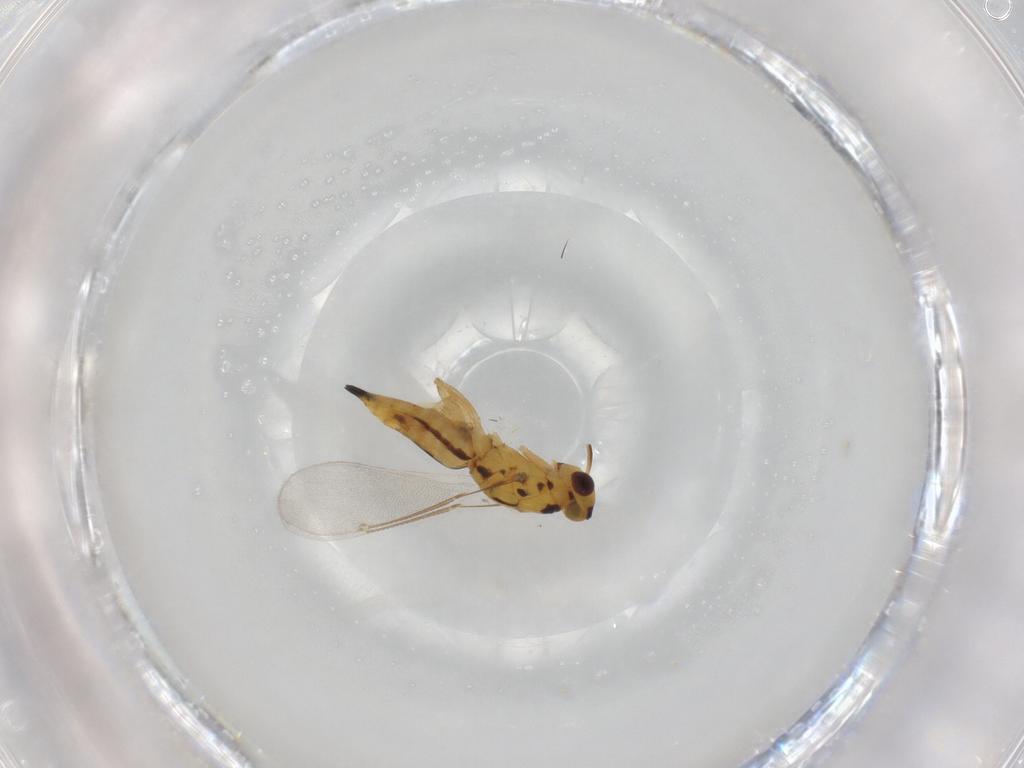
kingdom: Animalia
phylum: Arthropoda
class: Insecta
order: Hymenoptera
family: Eulophidae
